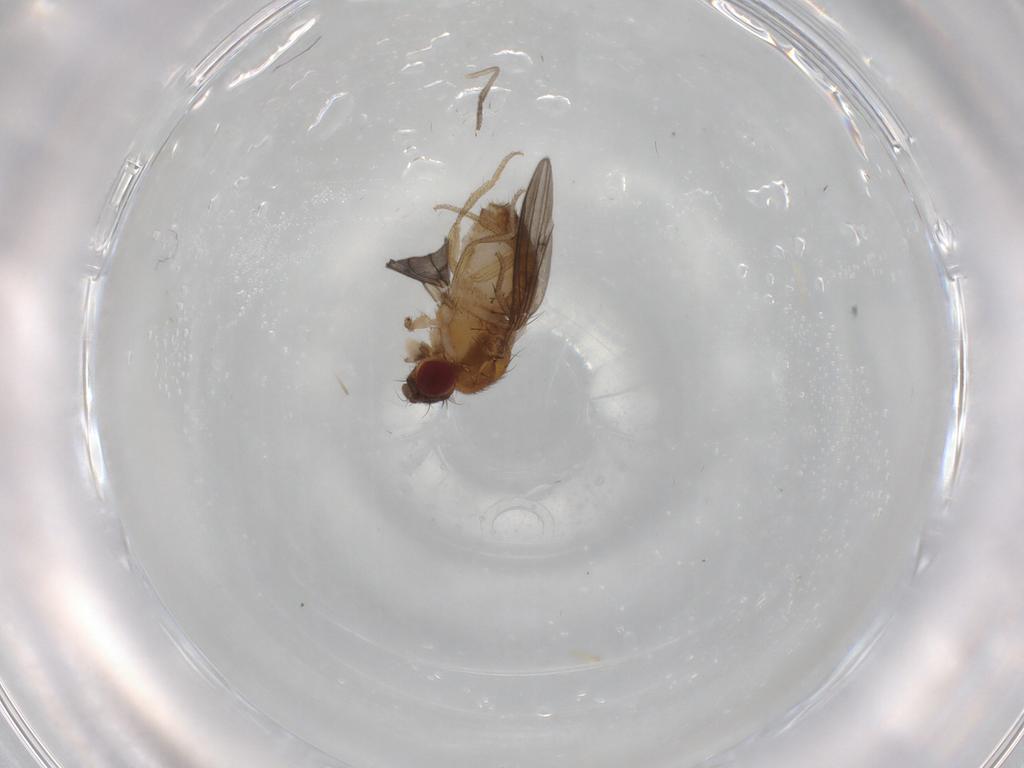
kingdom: Animalia
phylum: Arthropoda
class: Insecta
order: Diptera
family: Drosophilidae
